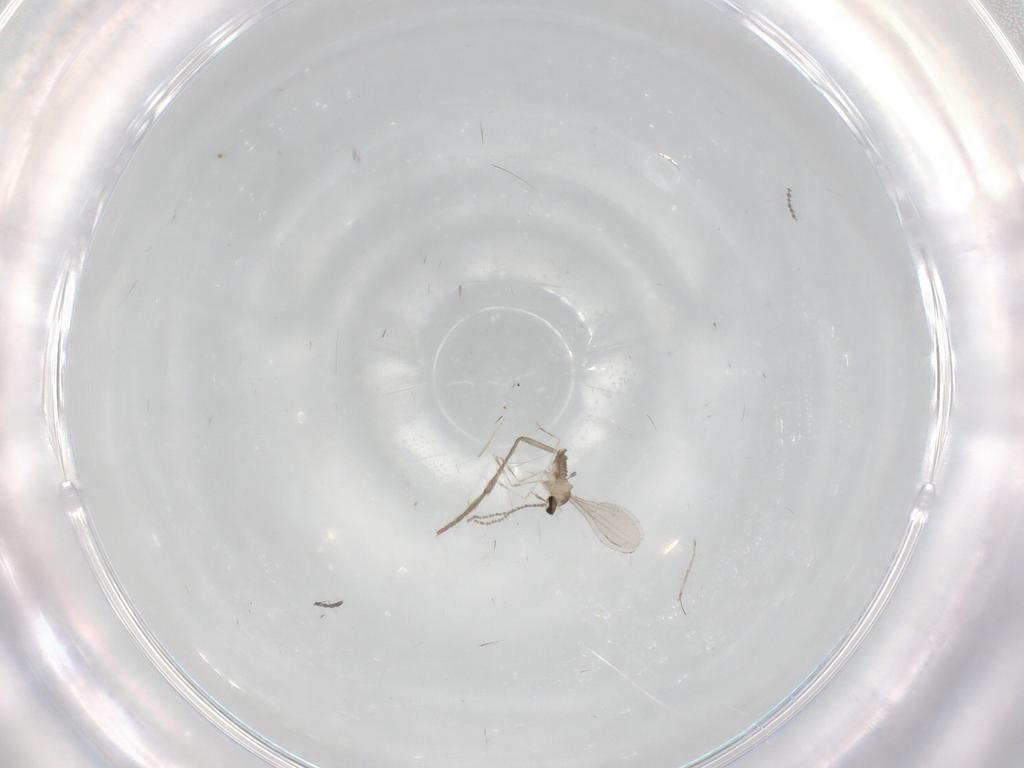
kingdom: Animalia
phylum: Arthropoda
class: Insecta
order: Diptera
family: Cecidomyiidae
